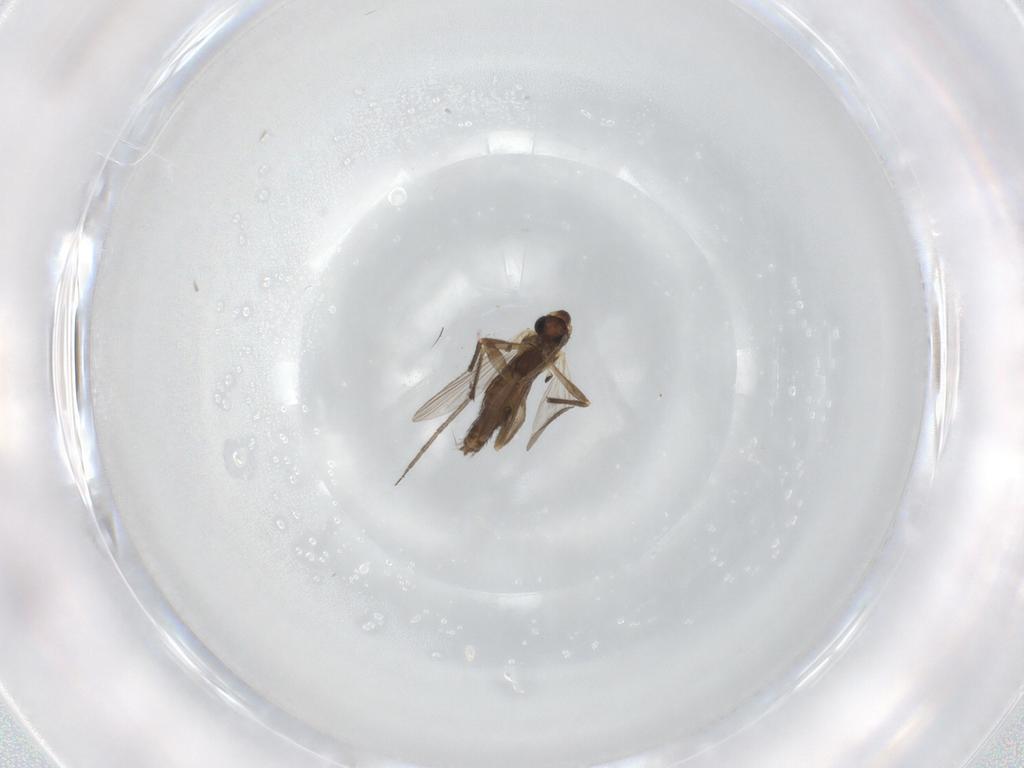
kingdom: Animalia
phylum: Arthropoda
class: Insecta
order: Diptera
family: Chironomidae
